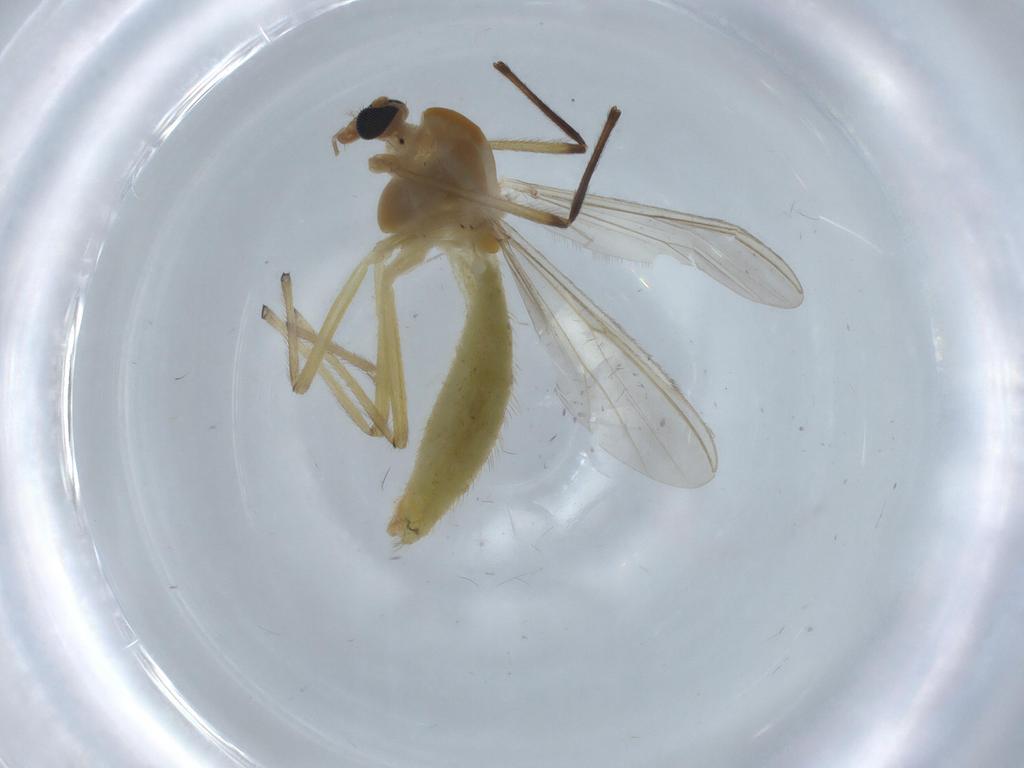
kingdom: Animalia
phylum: Arthropoda
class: Insecta
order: Diptera
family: Chironomidae
